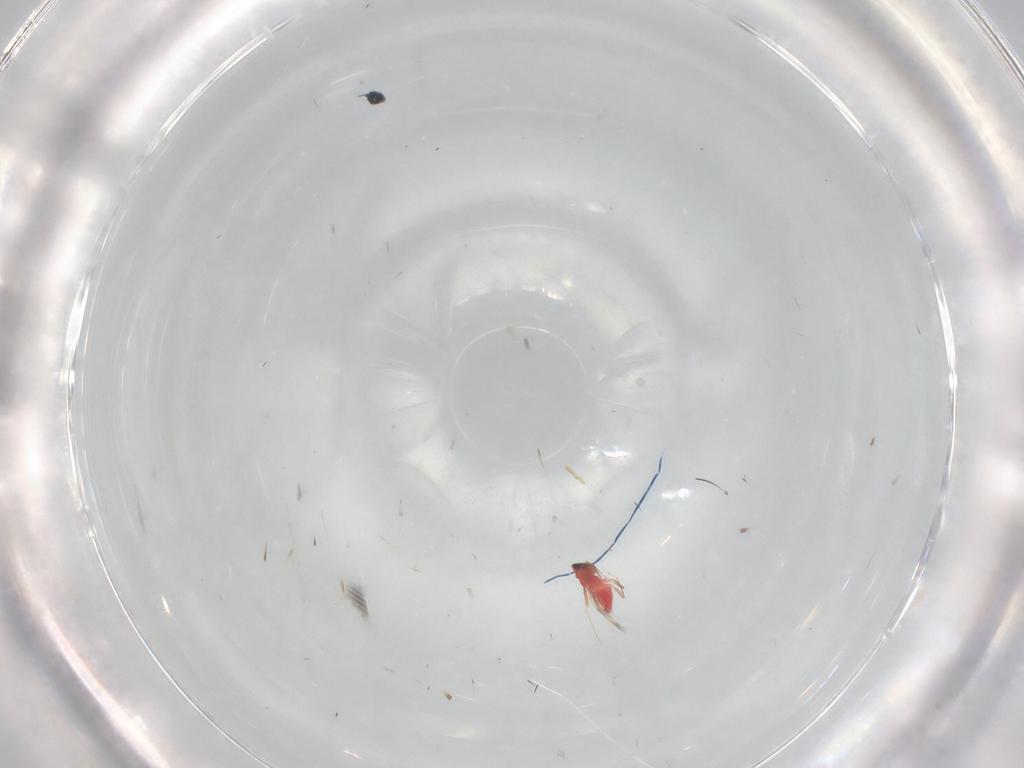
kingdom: Animalia
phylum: Arthropoda
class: Insecta
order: Hymenoptera
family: Trichogrammatidae
